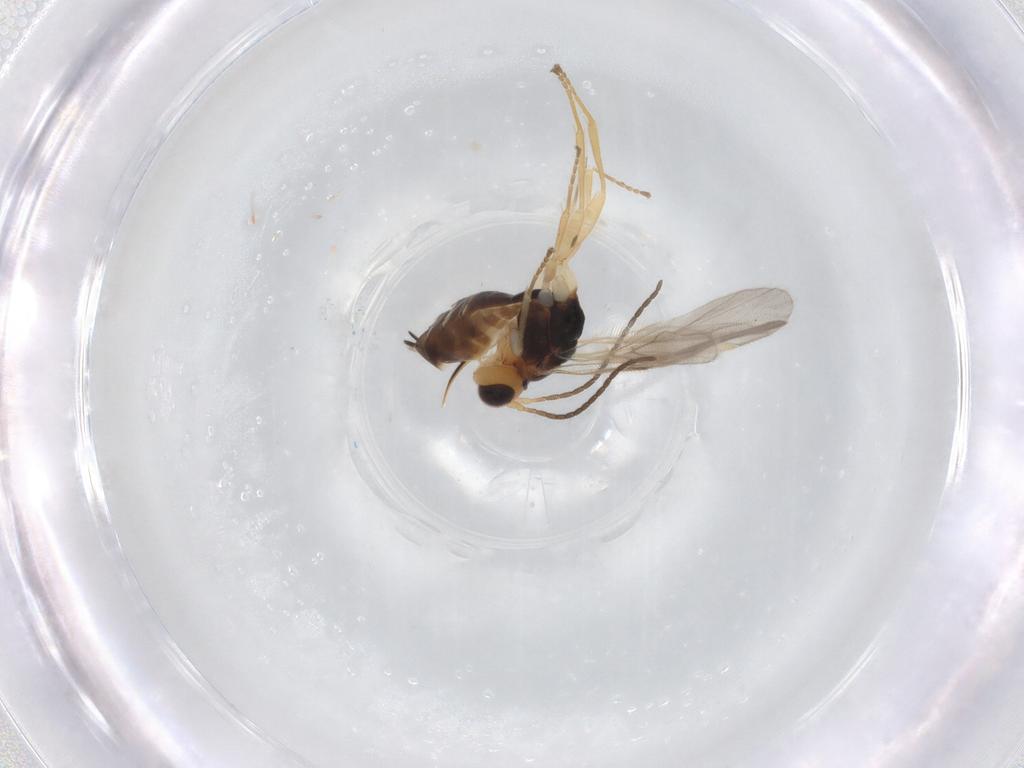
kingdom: Animalia
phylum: Arthropoda
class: Insecta
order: Hymenoptera
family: Braconidae
